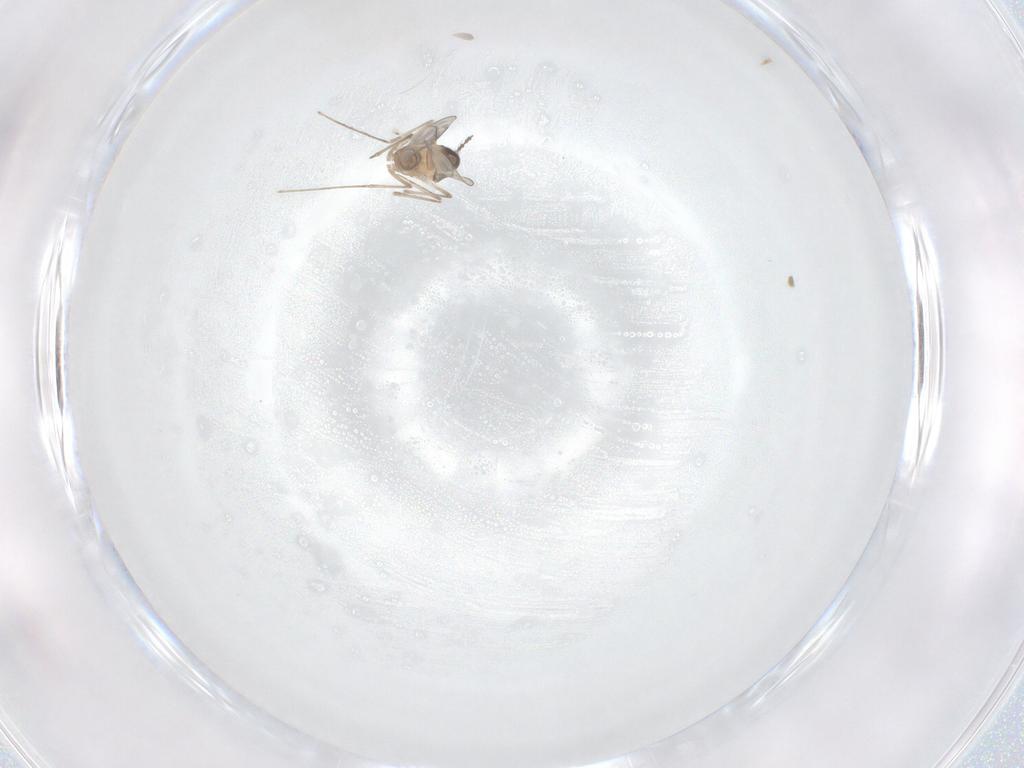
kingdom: Animalia
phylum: Arthropoda
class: Insecta
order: Diptera
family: Cecidomyiidae
